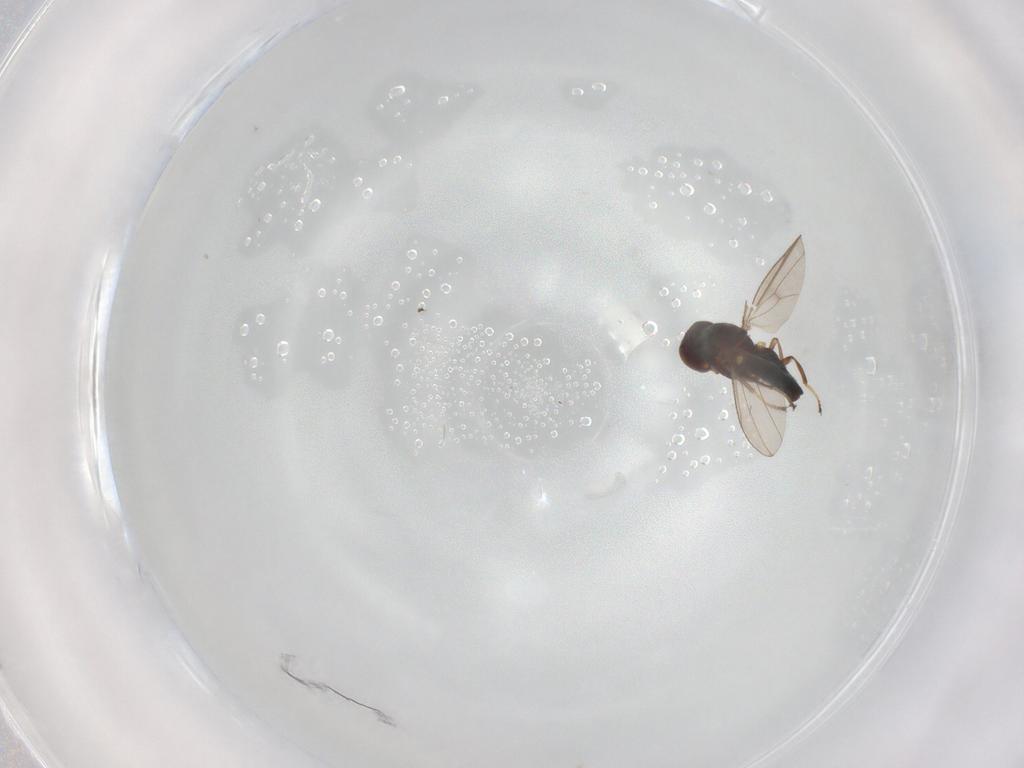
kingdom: Animalia
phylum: Arthropoda
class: Insecta
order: Diptera
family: Ephydridae
